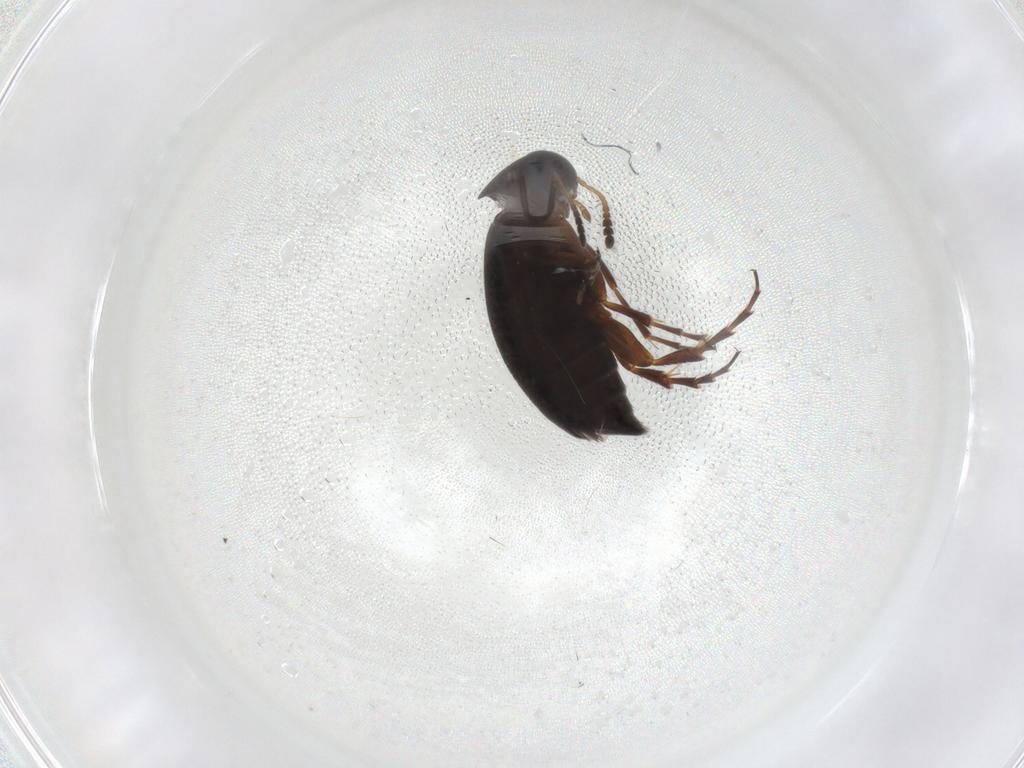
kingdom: Animalia
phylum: Arthropoda
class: Insecta
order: Coleoptera
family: Scraptiidae
